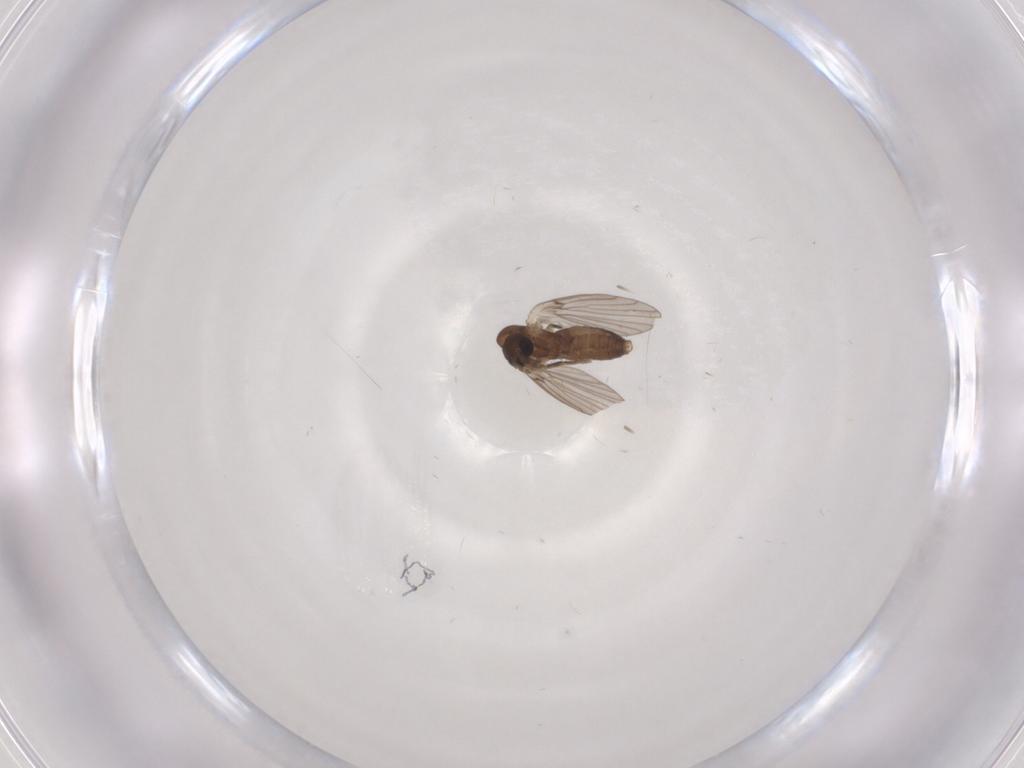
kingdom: Animalia
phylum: Arthropoda
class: Insecta
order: Diptera
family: Psychodidae
